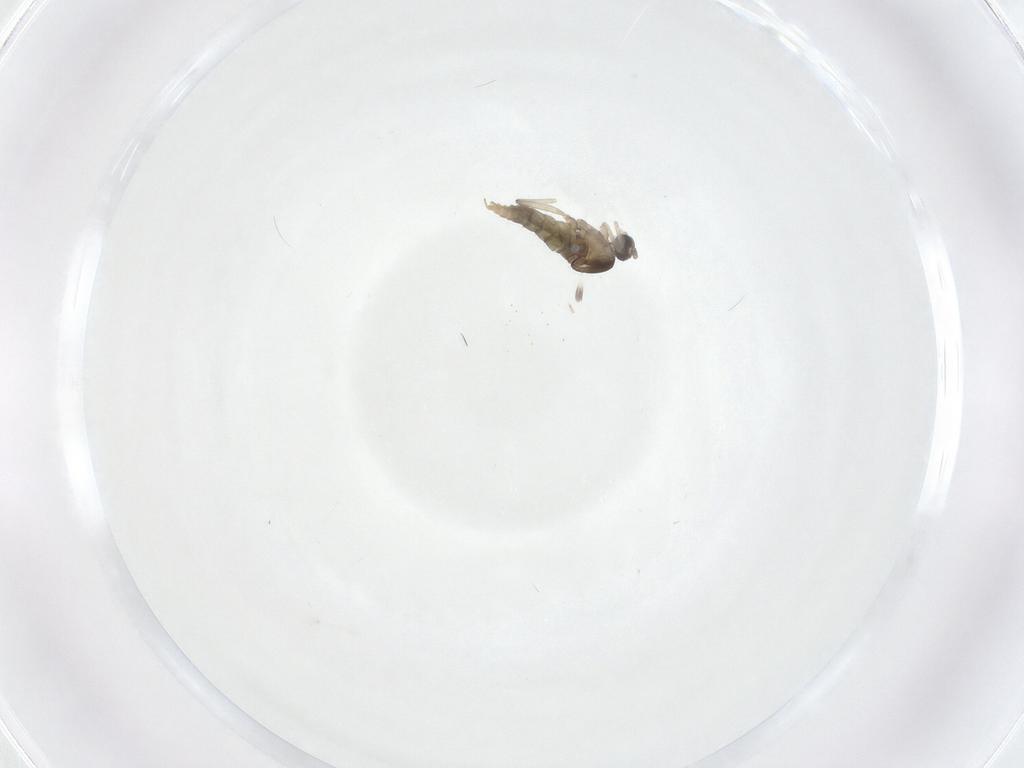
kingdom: Animalia
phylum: Arthropoda
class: Insecta
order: Diptera
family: Cecidomyiidae
